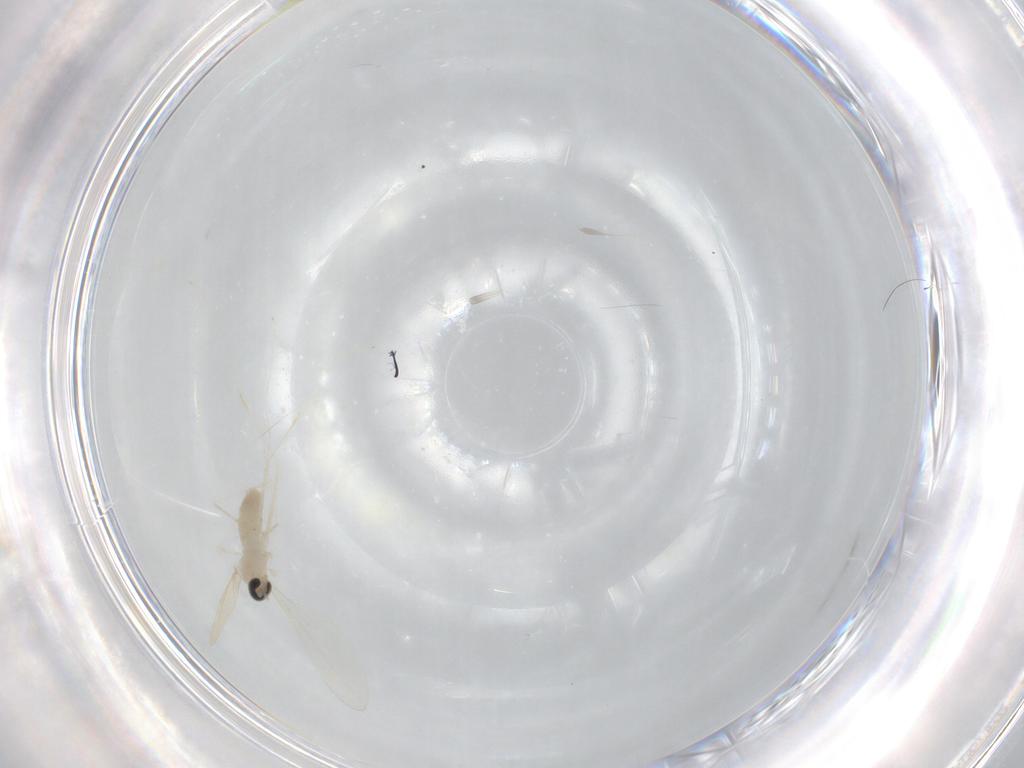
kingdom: Animalia
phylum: Arthropoda
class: Insecta
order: Diptera
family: Cecidomyiidae
